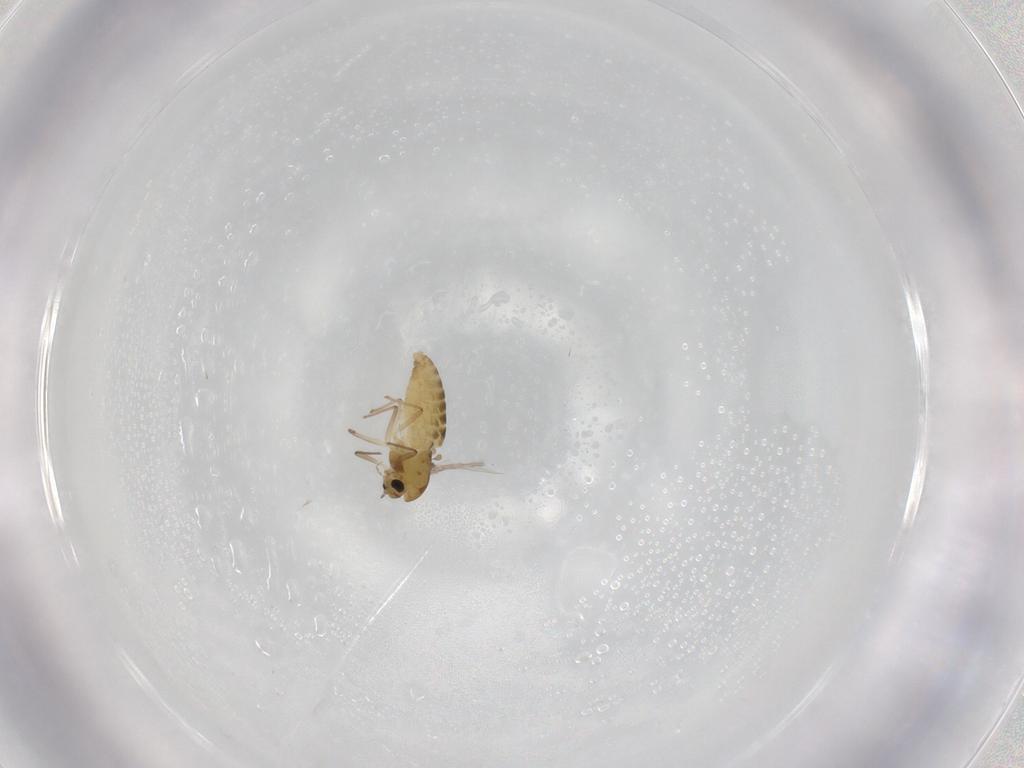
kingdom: Animalia
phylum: Arthropoda
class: Insecta
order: Diptera
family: Chironomidae
